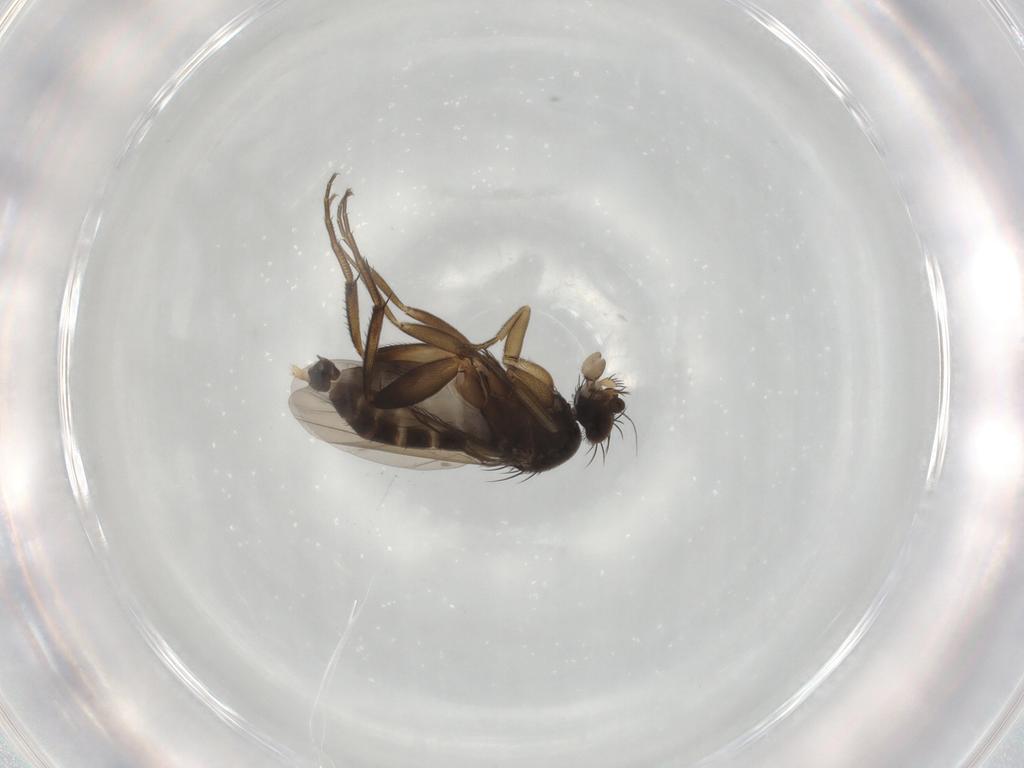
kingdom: Animalia
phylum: Arthropoda
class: Insecta
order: Diptera
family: Phoridae
